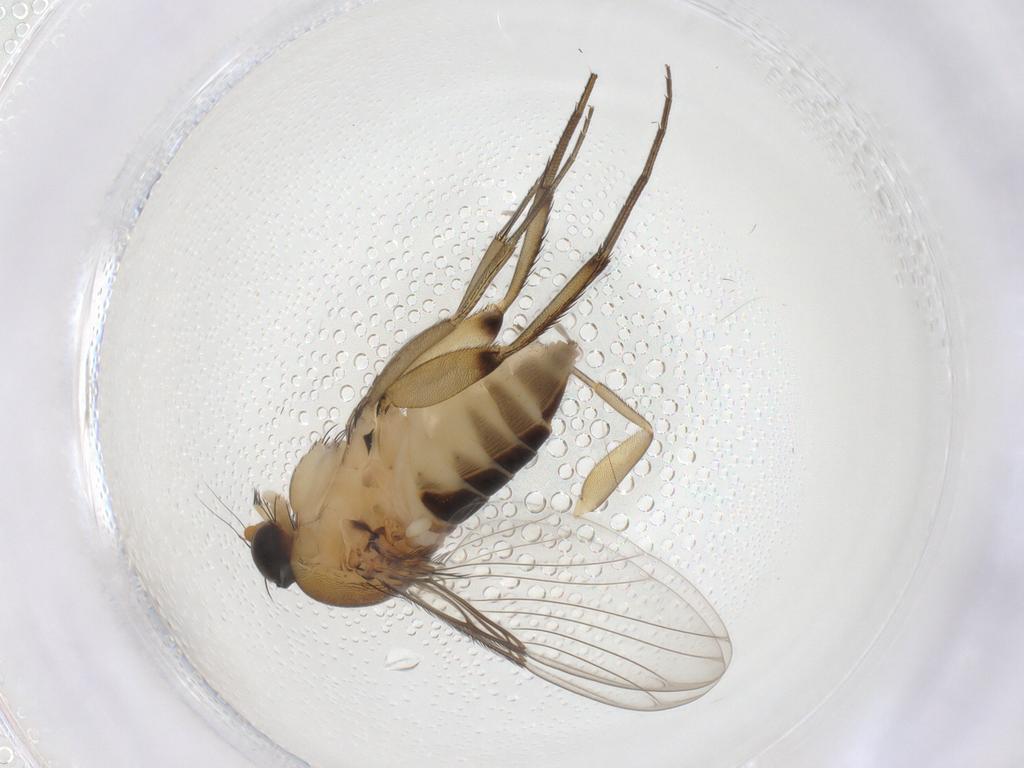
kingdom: Animalia
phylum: Arthropoda
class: Insecta
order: Diptera
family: Phoridae
